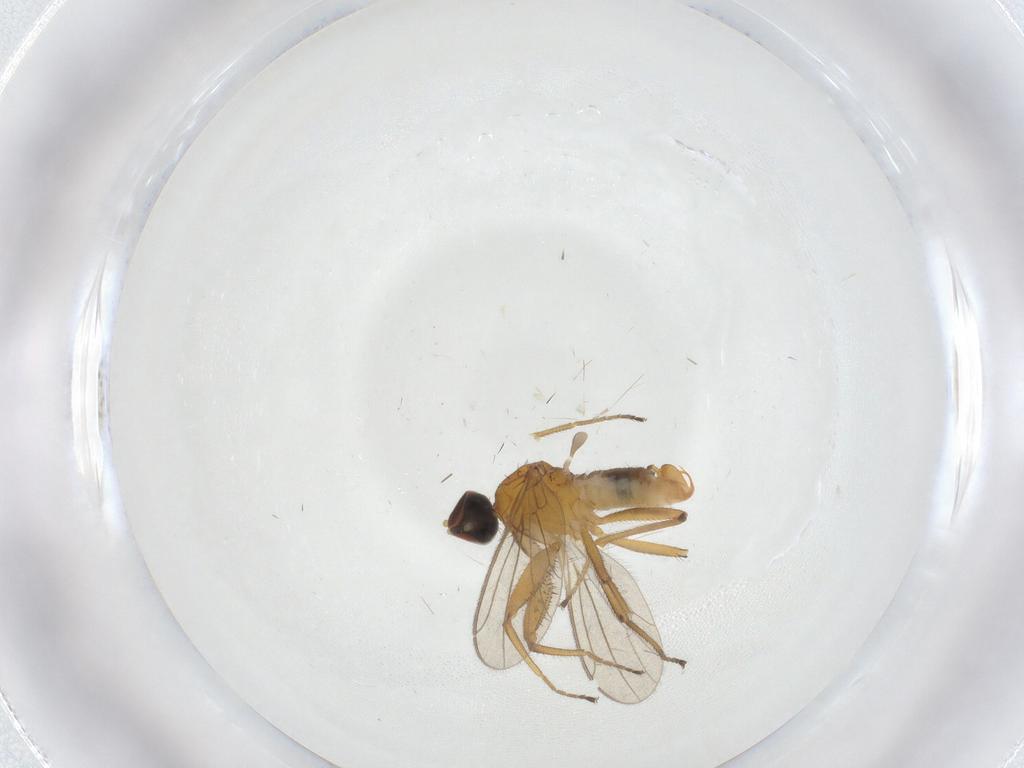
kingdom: Animalia
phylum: Arthropoda
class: Insecta
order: Diptera
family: Empididae
